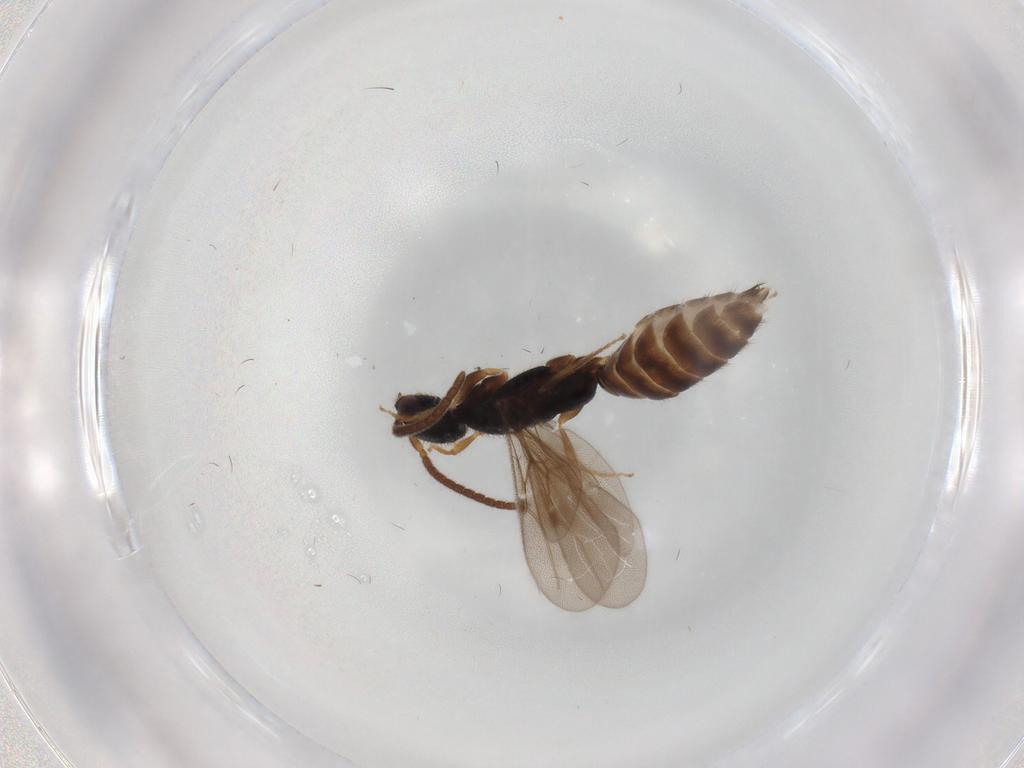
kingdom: Animalia
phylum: Arthropoda
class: Insecta
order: Hymenoptera
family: Bethylidae
